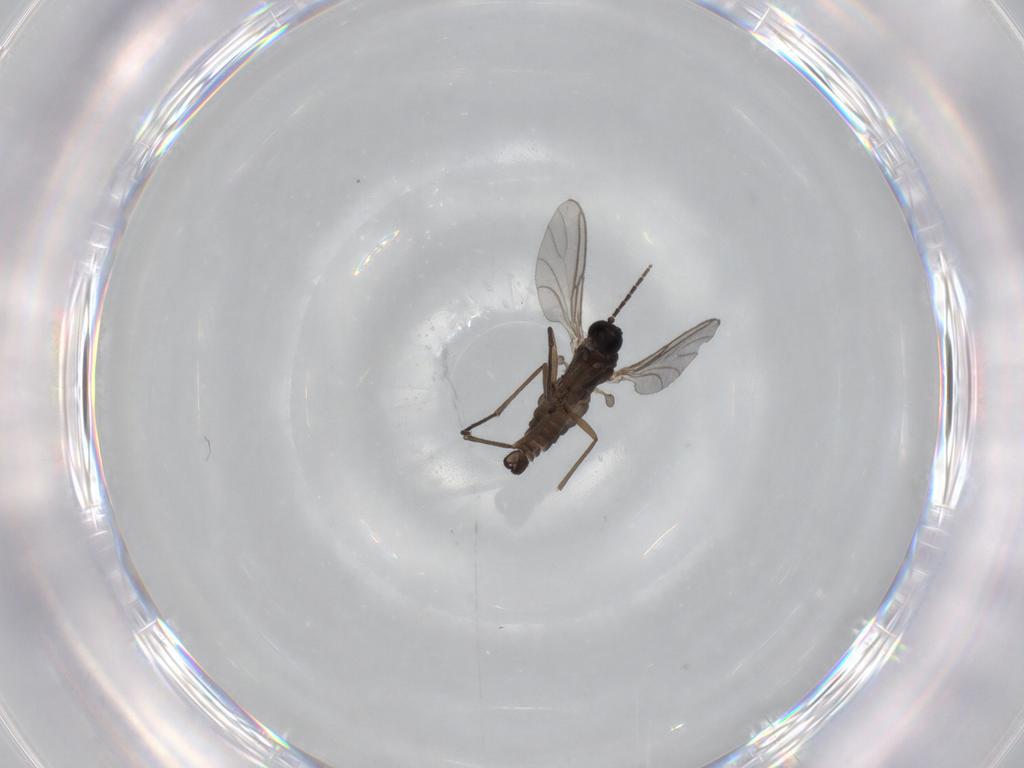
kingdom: Animalia
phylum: Arthropoda
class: Insecta
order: Diptera
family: Sciaridae
